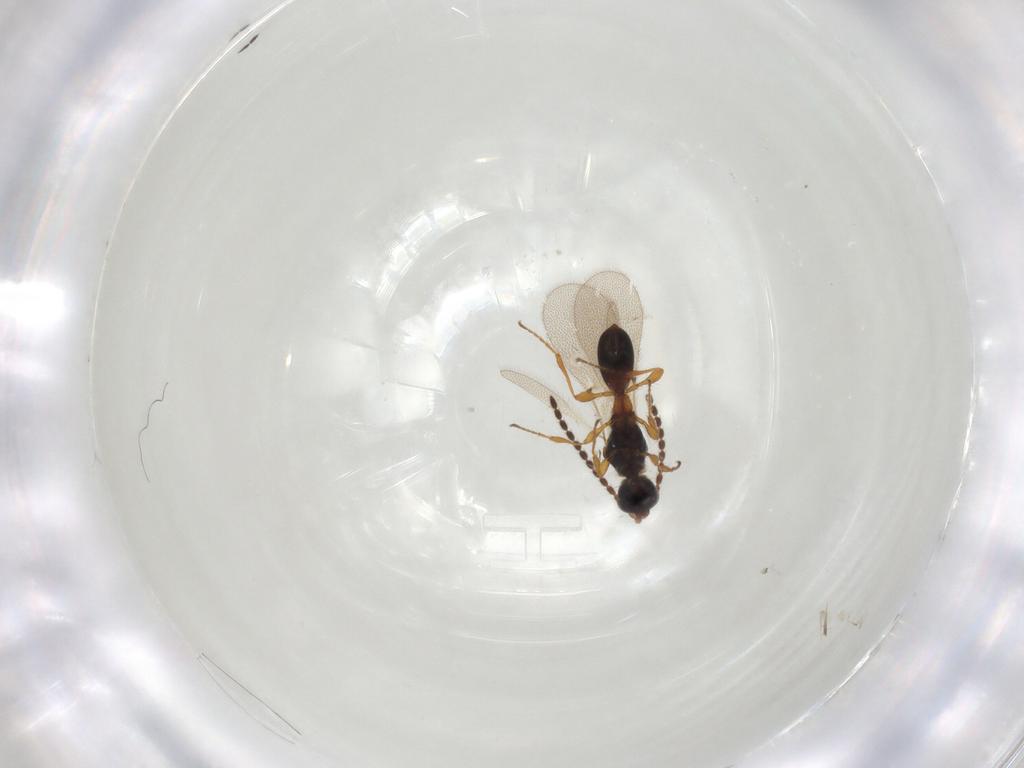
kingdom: Animalia
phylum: Arthropoda
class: Insecta
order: Hymenoptera
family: Diapriidae
